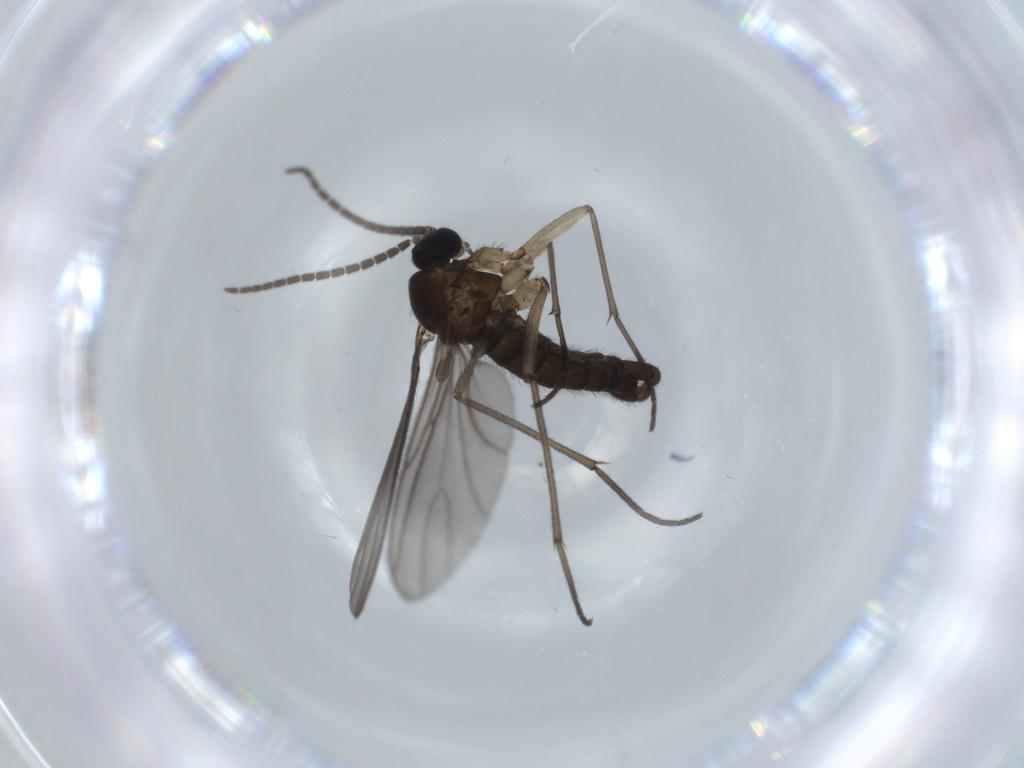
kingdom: Animalia
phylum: Arthropoda
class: Insecta
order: Diptera
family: Sciaridae
